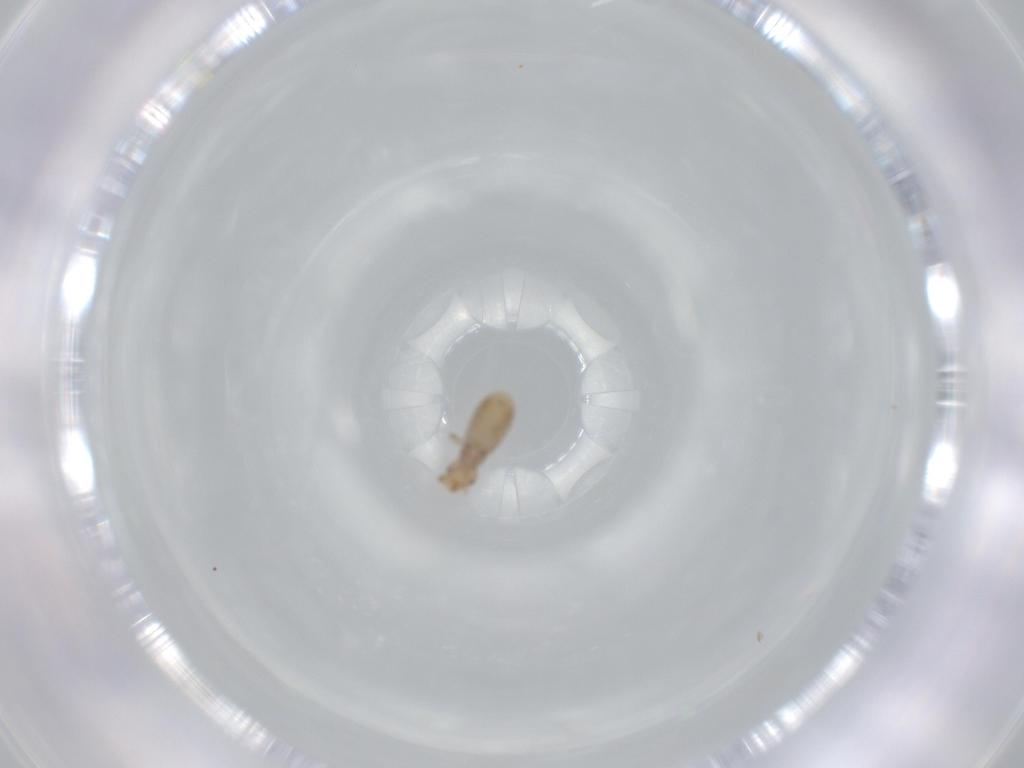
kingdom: Animalia
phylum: Arthropoda
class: Insecta
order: Psocodea
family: Liposcelididae
